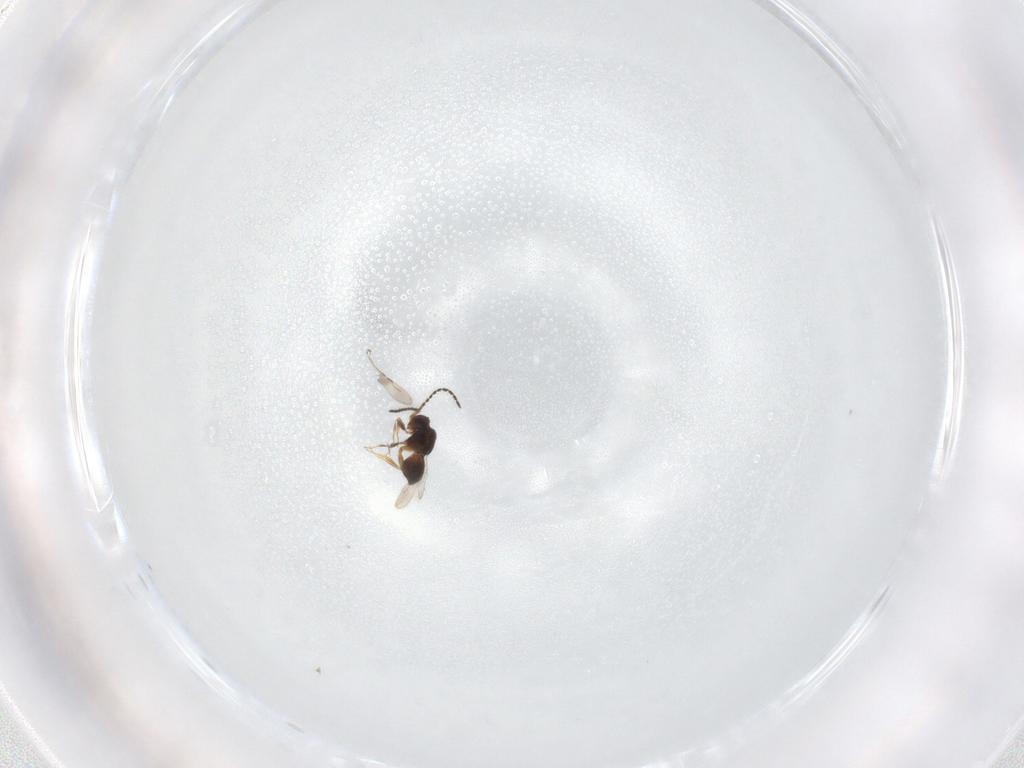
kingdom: Animalia
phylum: Arthropoda
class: Insecta
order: Hymenoptera
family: Ceraphronidae
